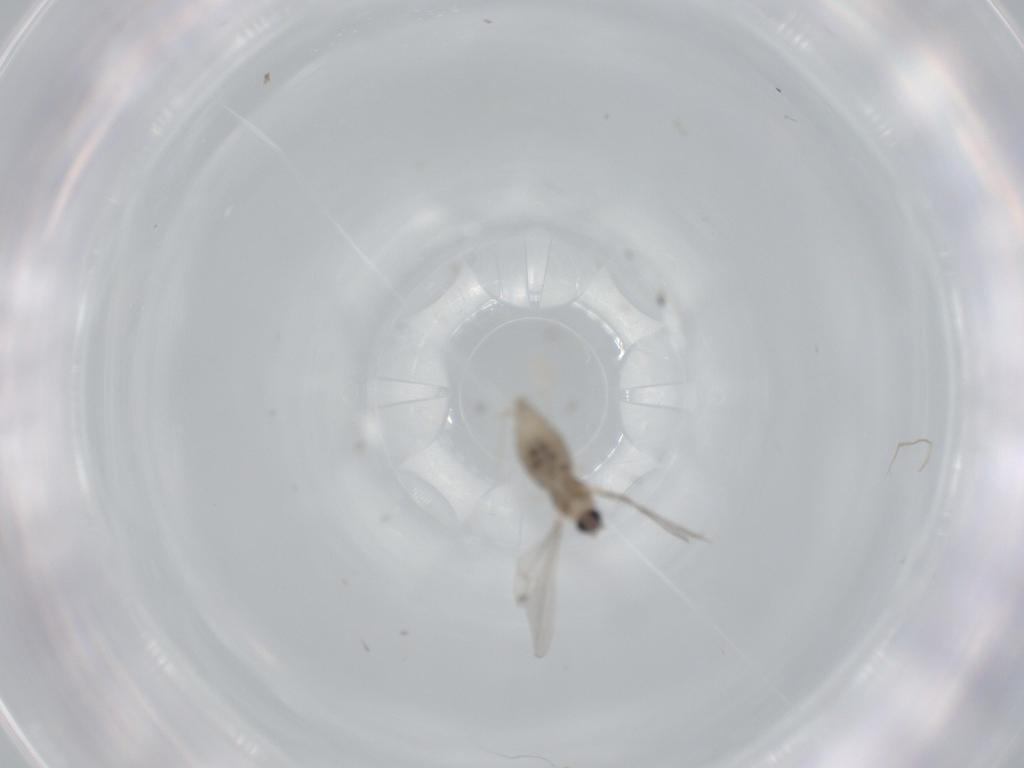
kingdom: Animalia
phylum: Arthropoda
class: Insecta
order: Diptera
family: Cecidomyiidae
